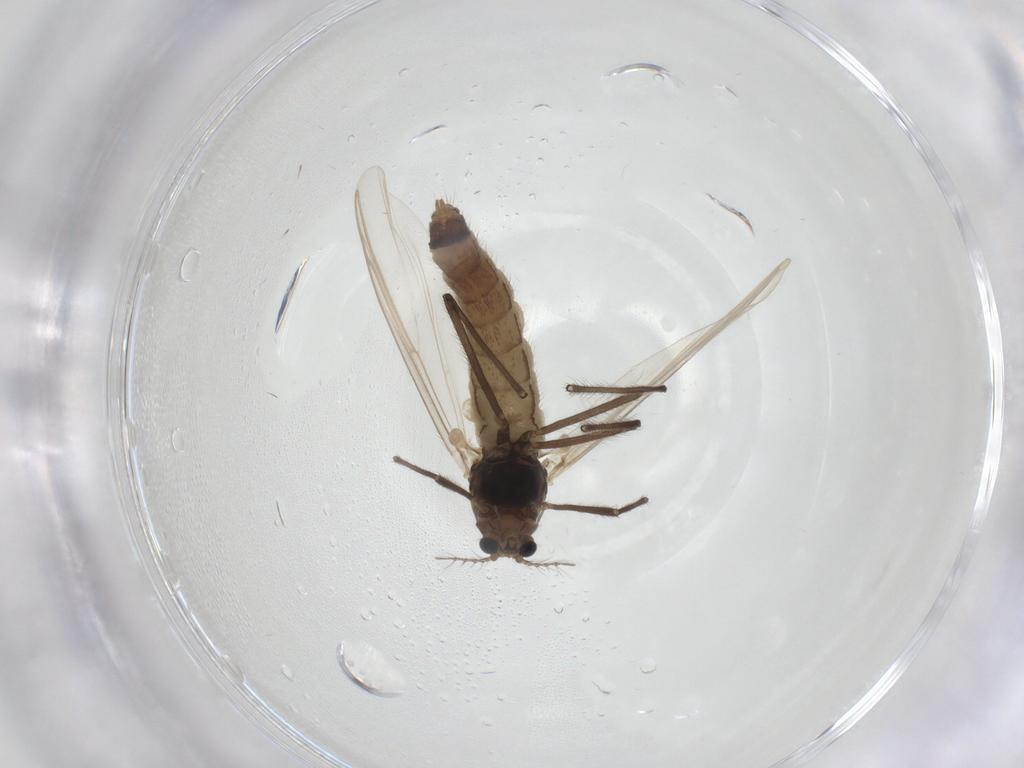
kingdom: Animalia
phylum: Arthropoda
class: Insecta
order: Diptera
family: Chironomidae
